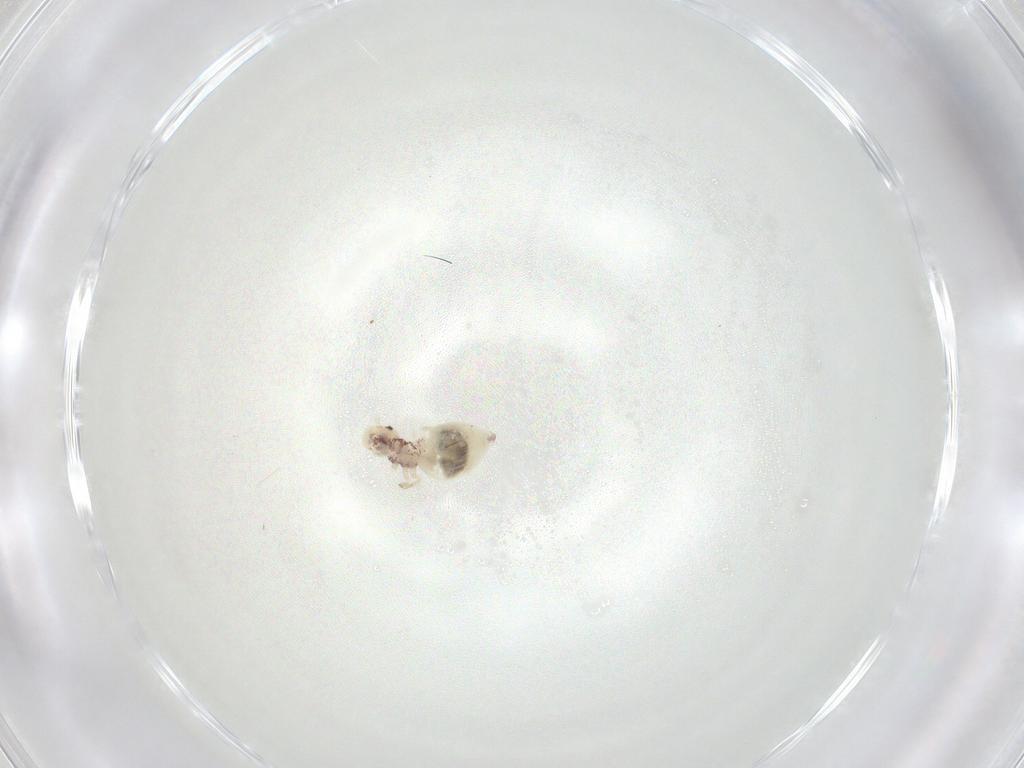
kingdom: Animalia
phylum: Arthropoda
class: Insecta
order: Psocodea
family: Amphipsocidae
